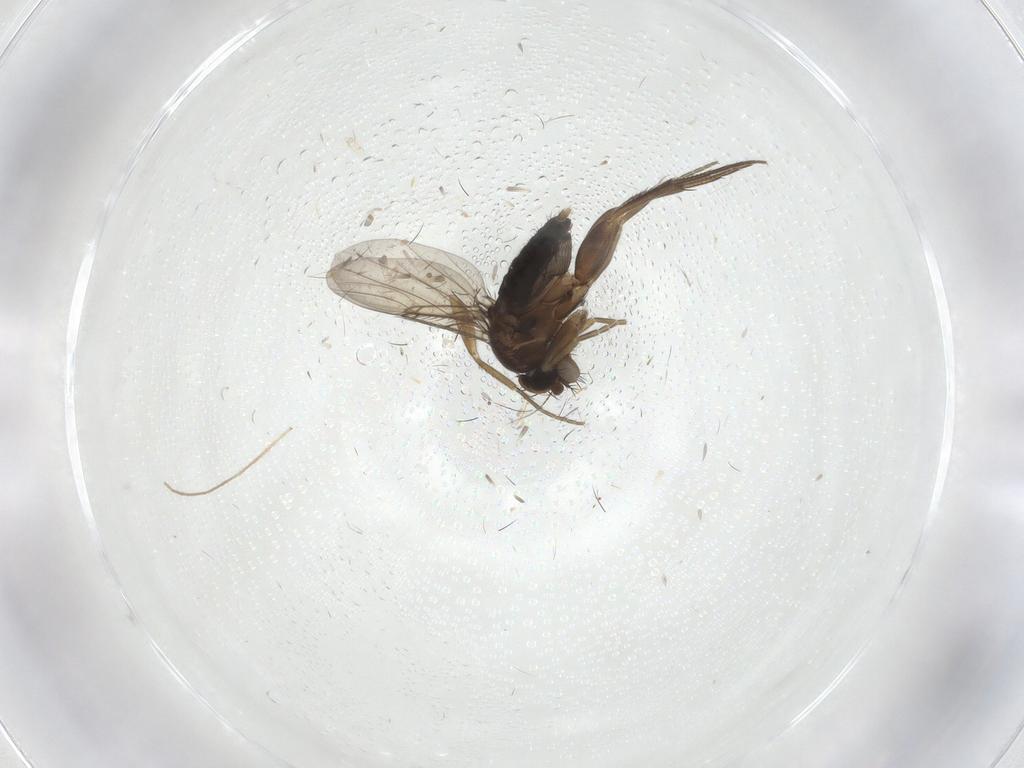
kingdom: Animalia
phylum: Arthropoda
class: Insecta
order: Diptera
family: Phoridae
